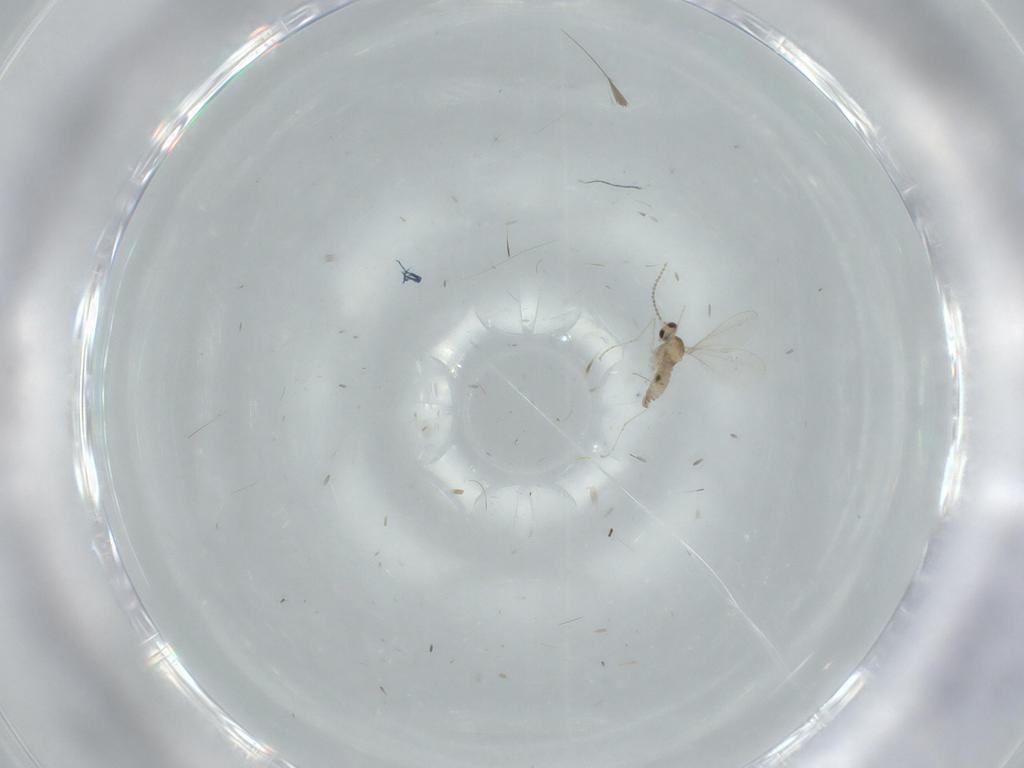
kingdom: Animalia
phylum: Arthropoda
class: Insecta
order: Diptera
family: Cecidomyiidae
